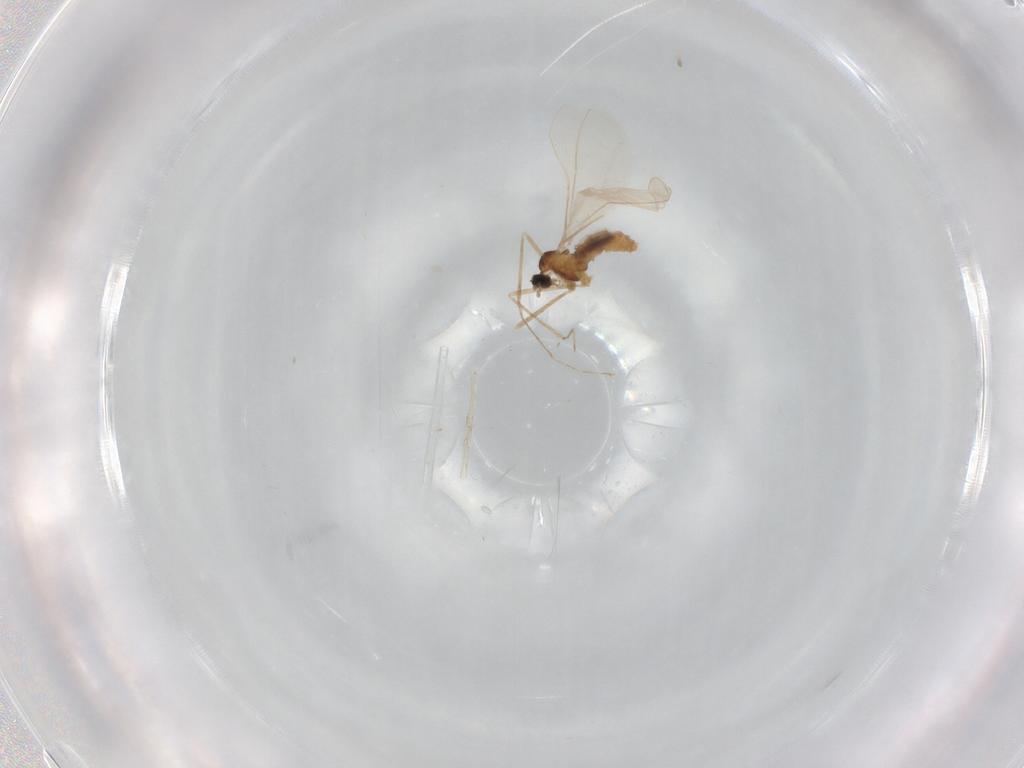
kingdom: Animalia
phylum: Arthropoda
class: Insecta
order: Diptera
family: Cecidomyiidae
